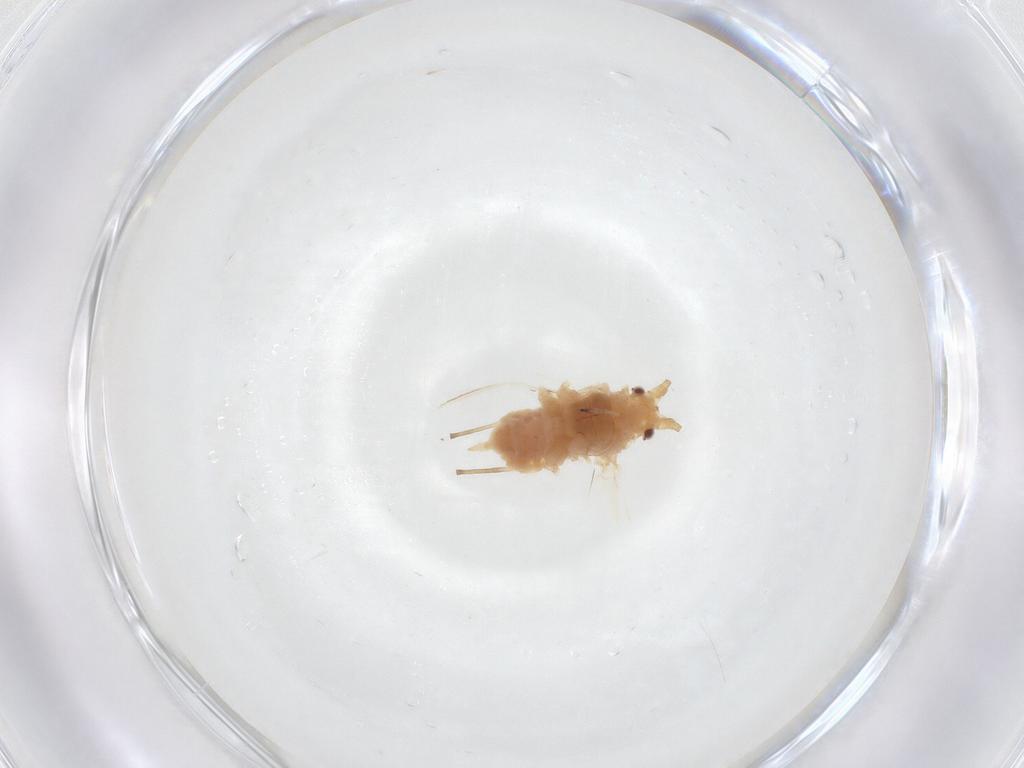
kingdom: Animalia
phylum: Arthropoda
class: Insecta
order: Hemiptera
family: Aphididae
